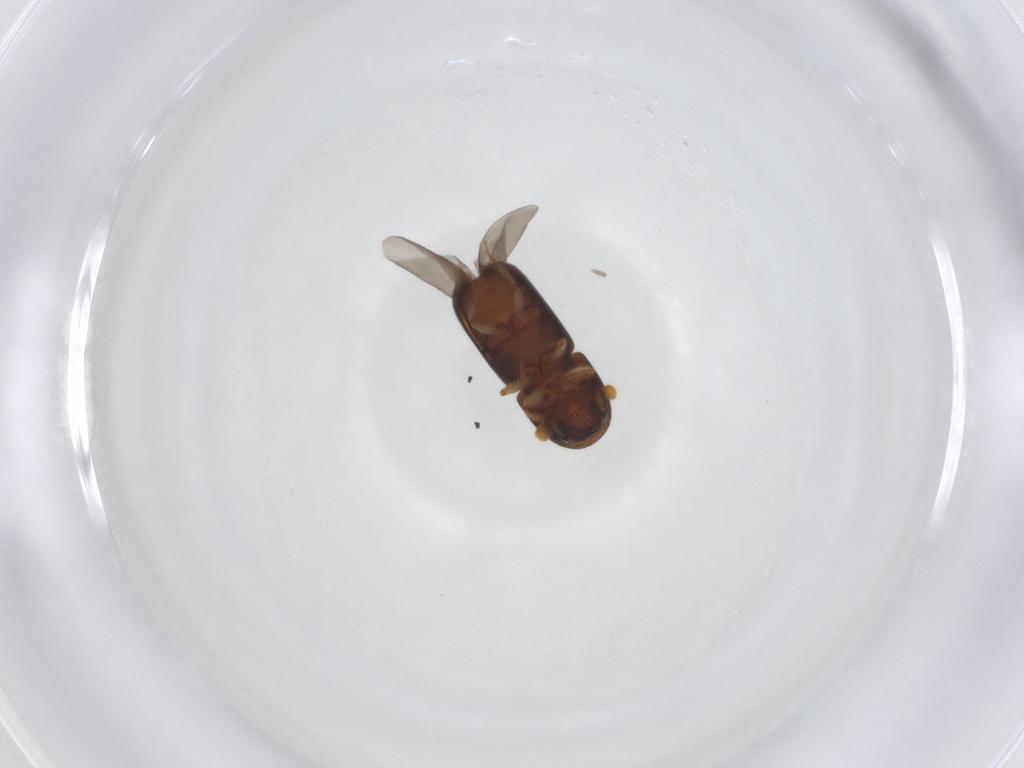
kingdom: Animalia
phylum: Arthropoda
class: Insecta
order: Coleoptera
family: Curculionidae
